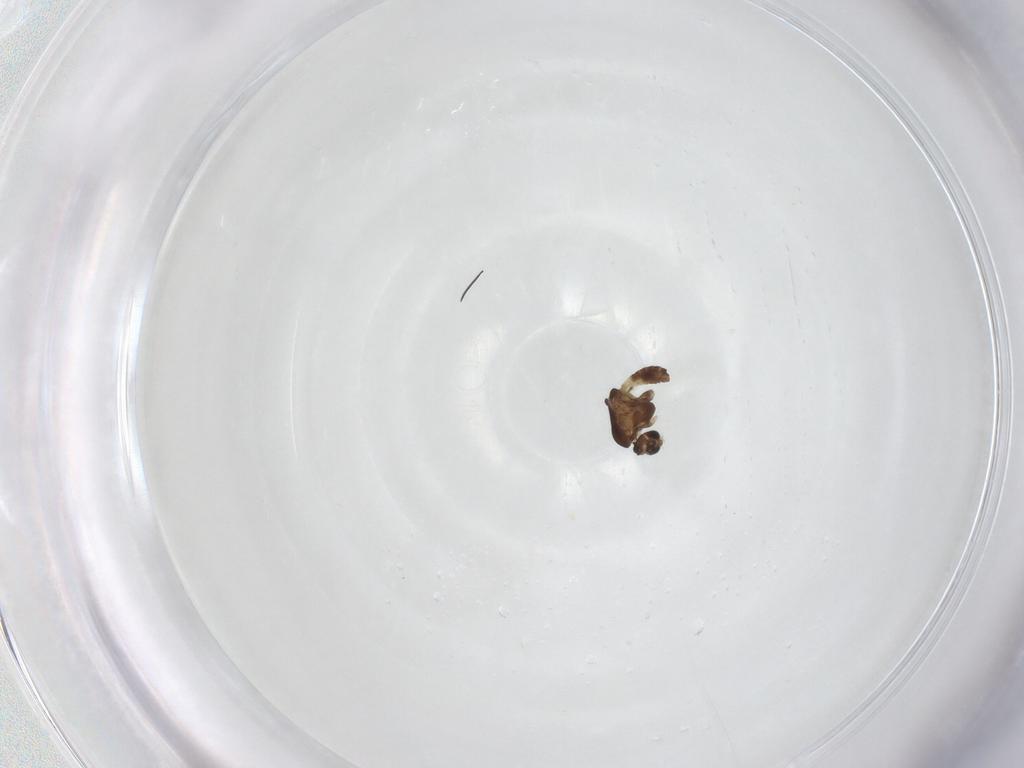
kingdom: Animalia
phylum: Arthropoda
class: Insecta
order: Diptera
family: Chironomidae
